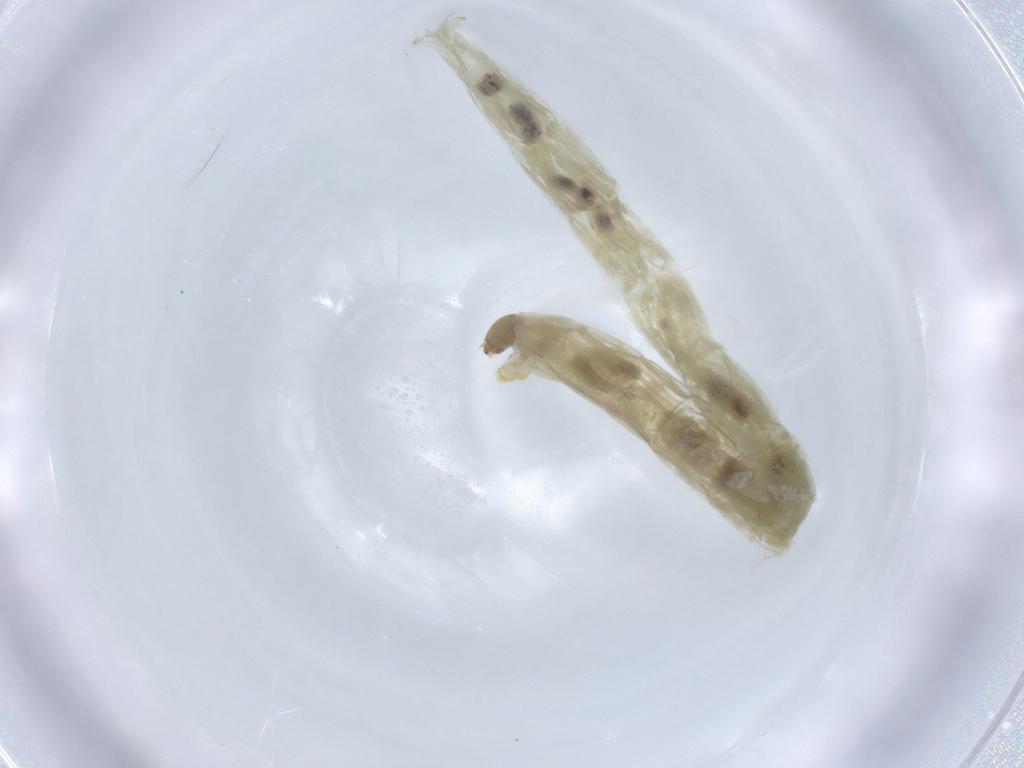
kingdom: Animalia
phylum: Arthropoda
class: Insecta
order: Diptera
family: Chironomidae
